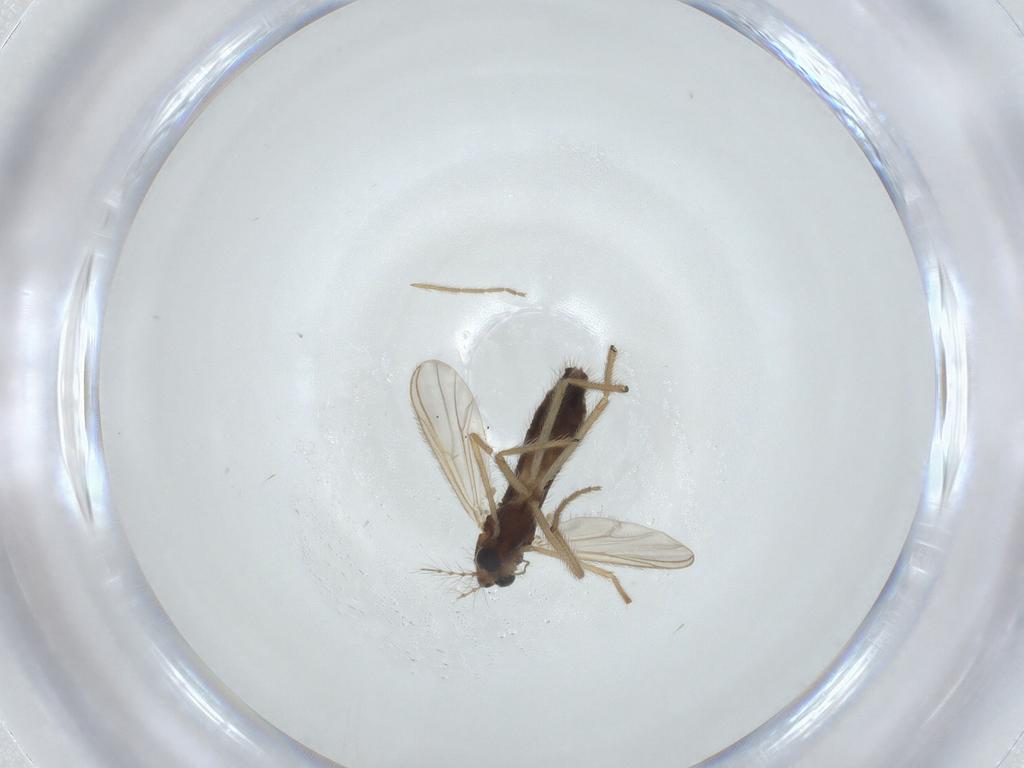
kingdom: Animalia
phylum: Arthropoda
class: Insecta
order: Diptera
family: Chironomidae
